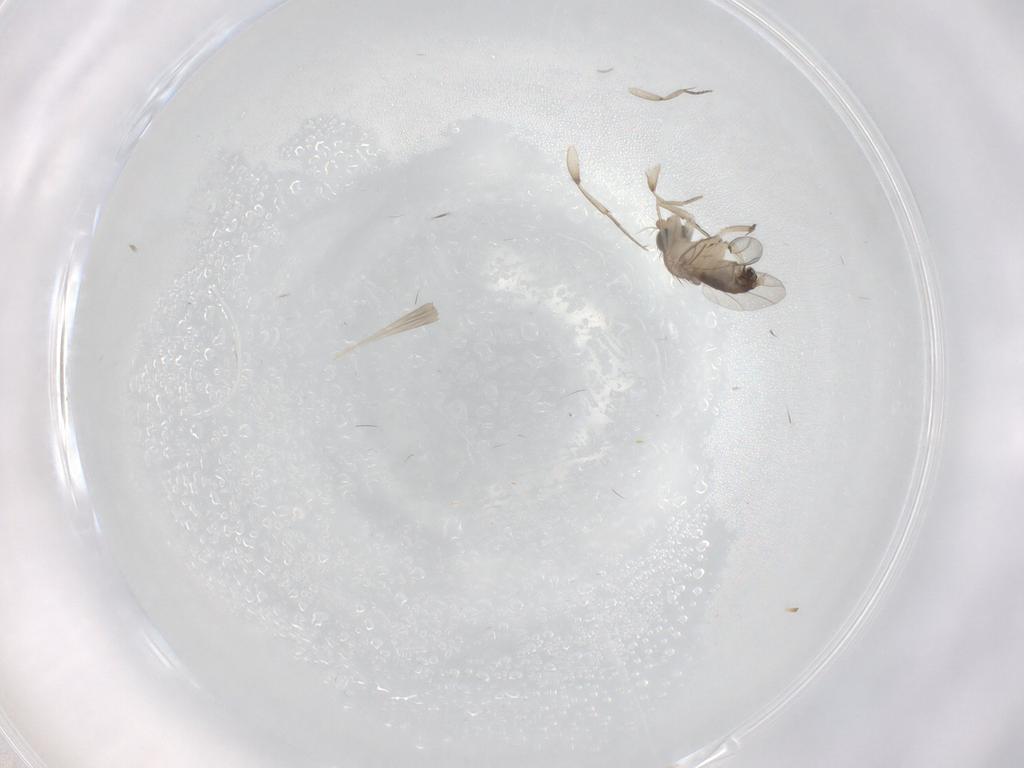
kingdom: Animalia
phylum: Arthropoda
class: Insecta
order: Diptera
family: Phoridae
